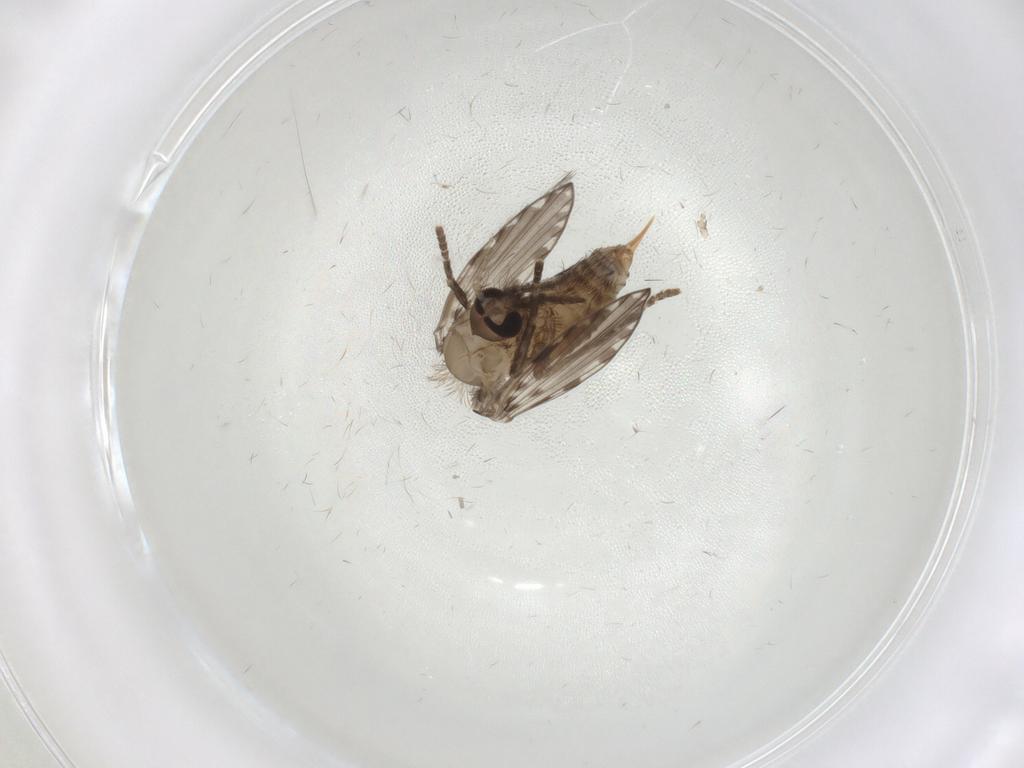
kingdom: Animalia
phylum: Arthropoda
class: Insecta
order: Diptera
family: Psychodidae
